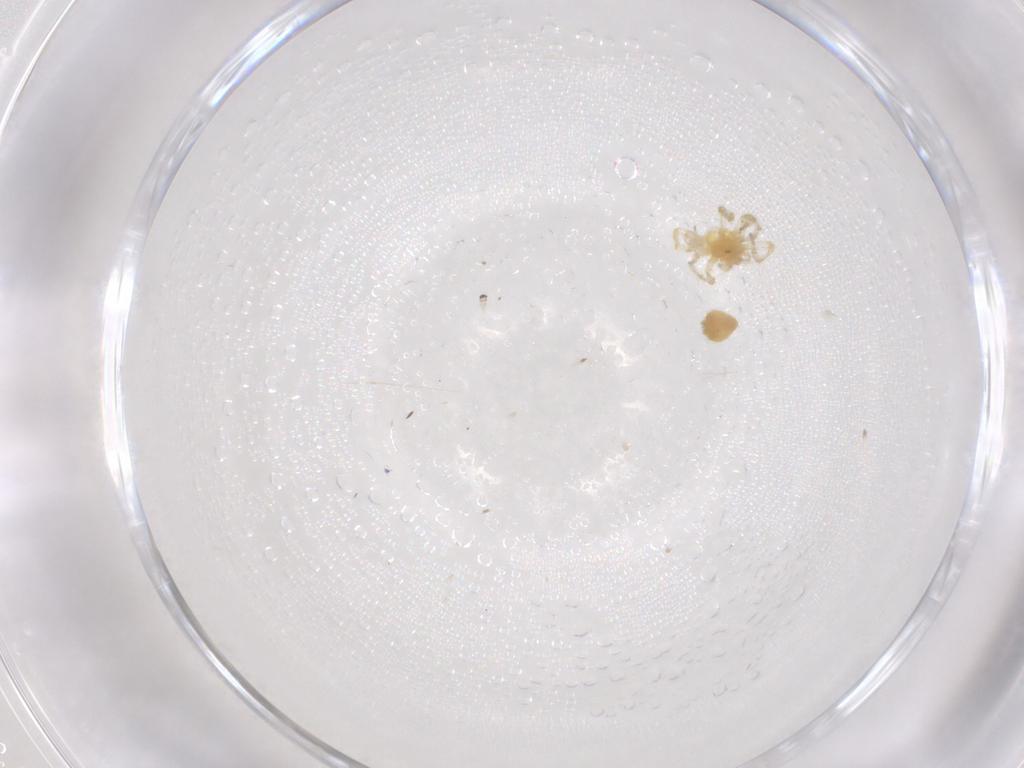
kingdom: Animalia
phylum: Arthropoda
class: Arachnida
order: Araneae
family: Dictynidae
